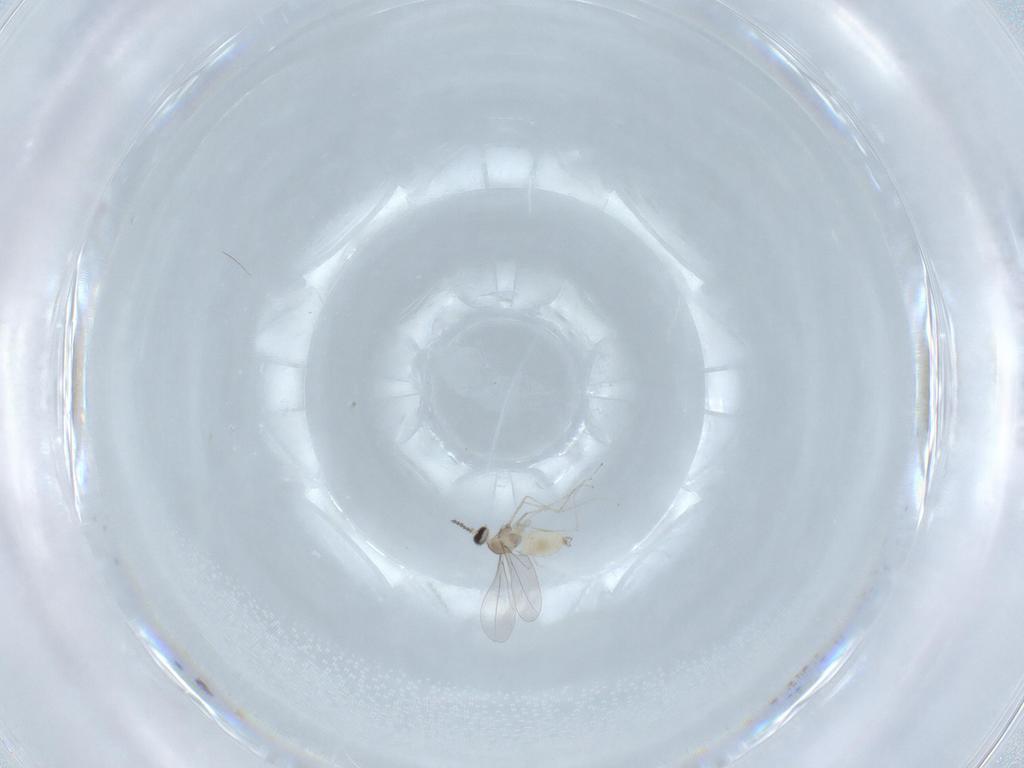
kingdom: Animalia
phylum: Arthropoda
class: Insecta
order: Diptera
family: Cecidomyiidae
